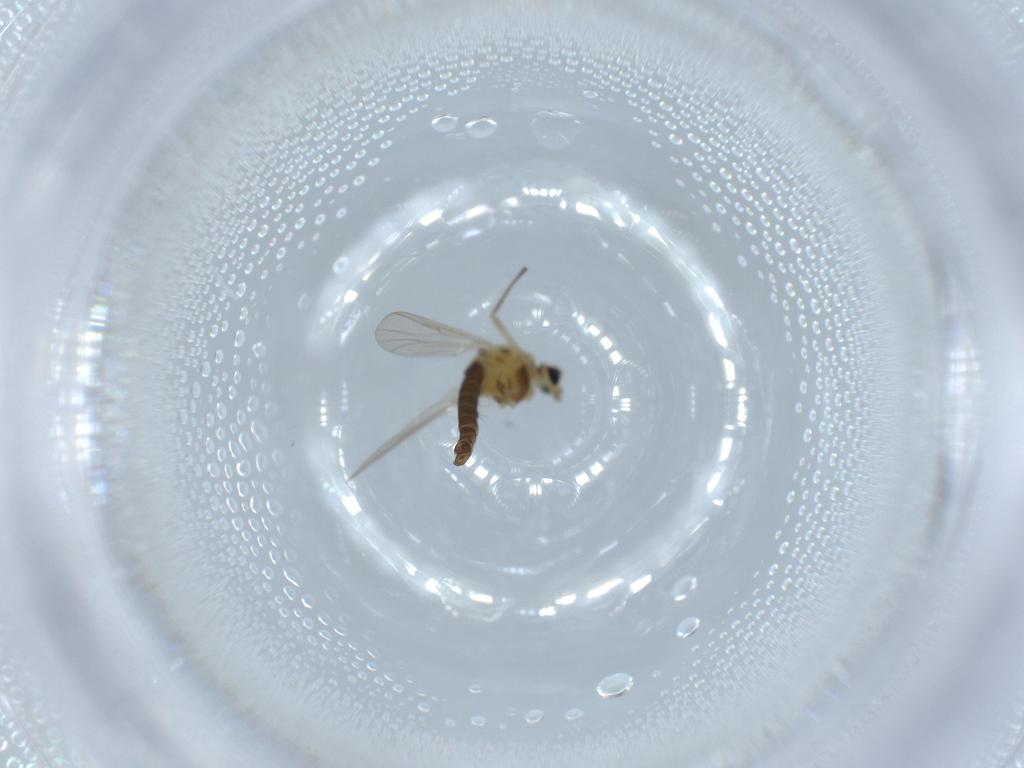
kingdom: Animalia
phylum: Arthropoda
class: Insecta
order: Diptera
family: Chironomidae
